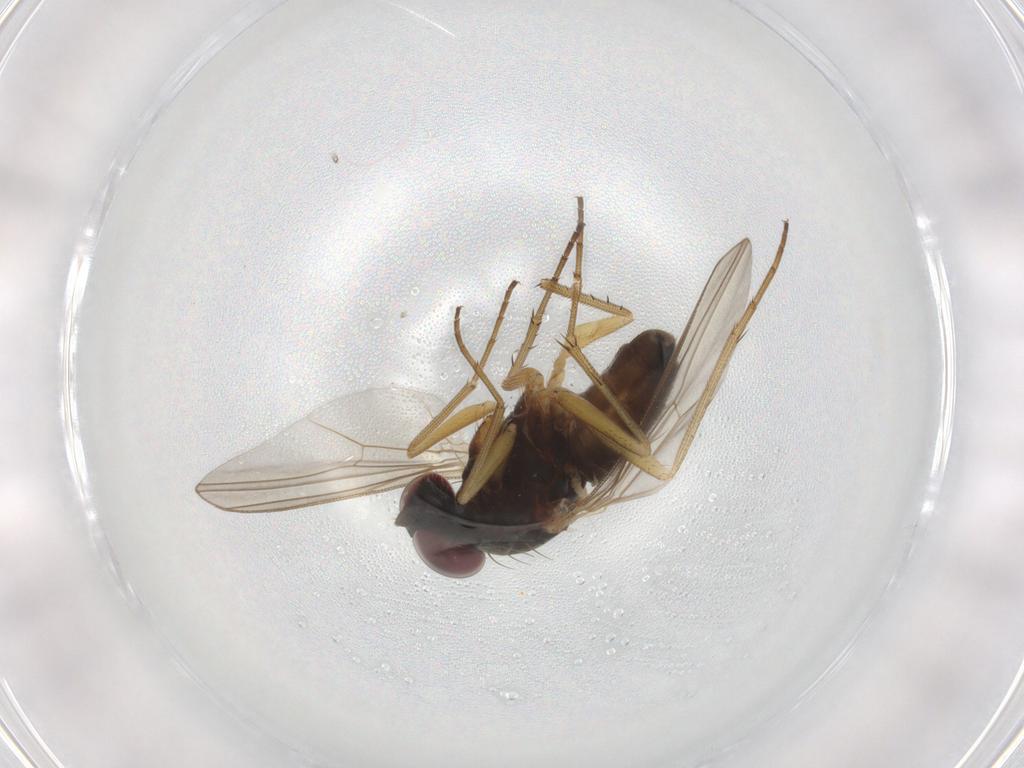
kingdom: Animalia
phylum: Arthropoda
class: Insecta
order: Diptera
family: Dolichopodidae
